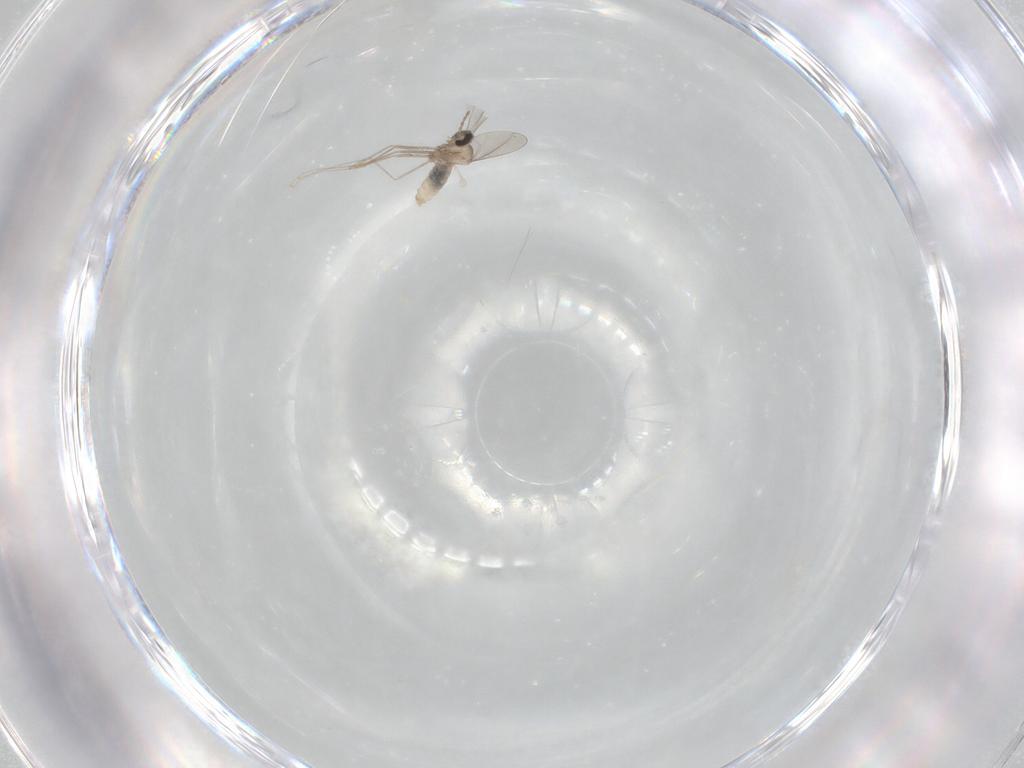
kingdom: Animalia
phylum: Arthropoda
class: Insecta
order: Diptera
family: Cecidomyiidae
